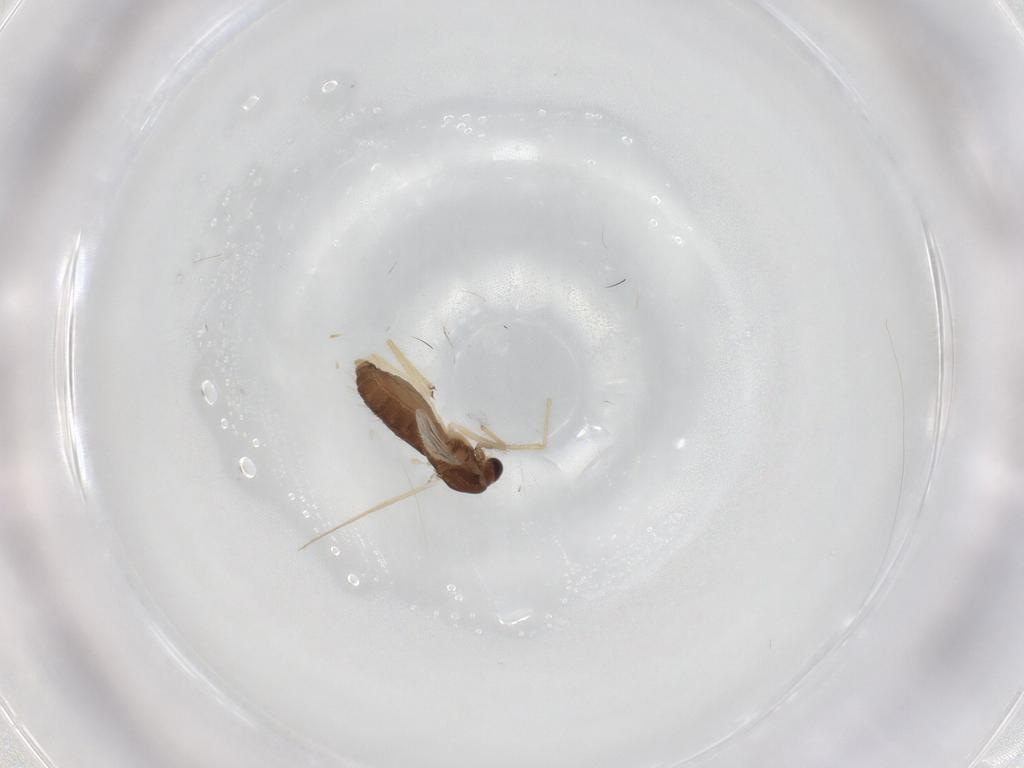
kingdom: Animalia
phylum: Arthropoda
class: Insecta
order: Diptera
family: Chironomidae
